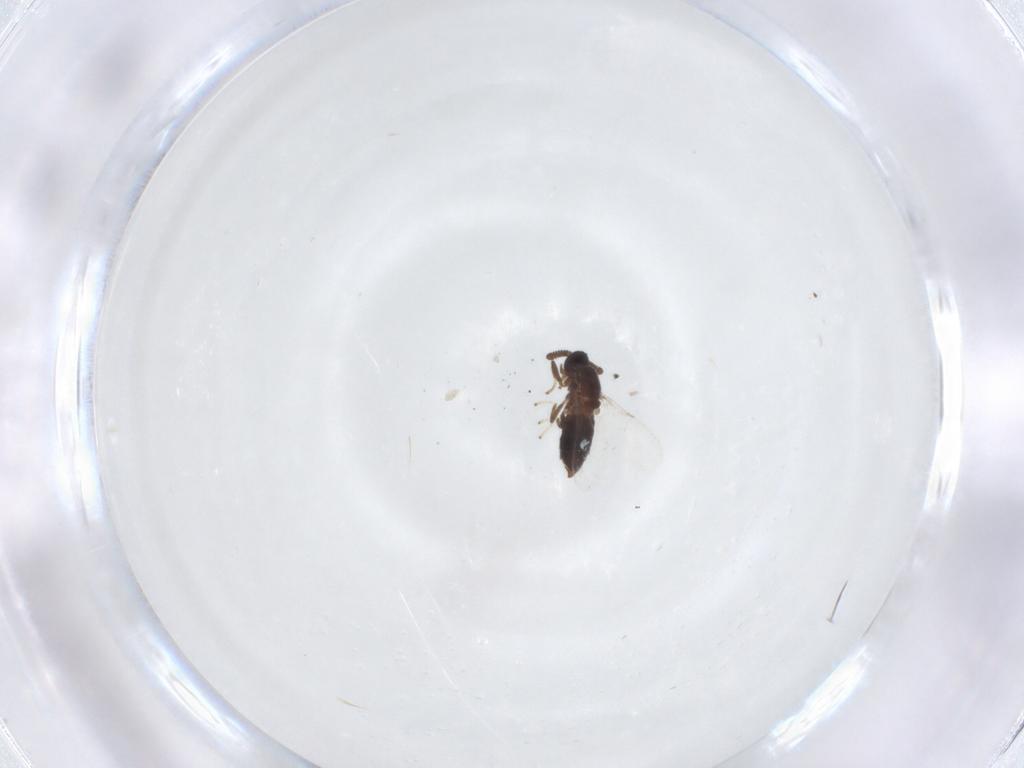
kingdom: Animalia
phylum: Arthropoda
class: Insecta
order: Diptera
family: Scatopsidae
